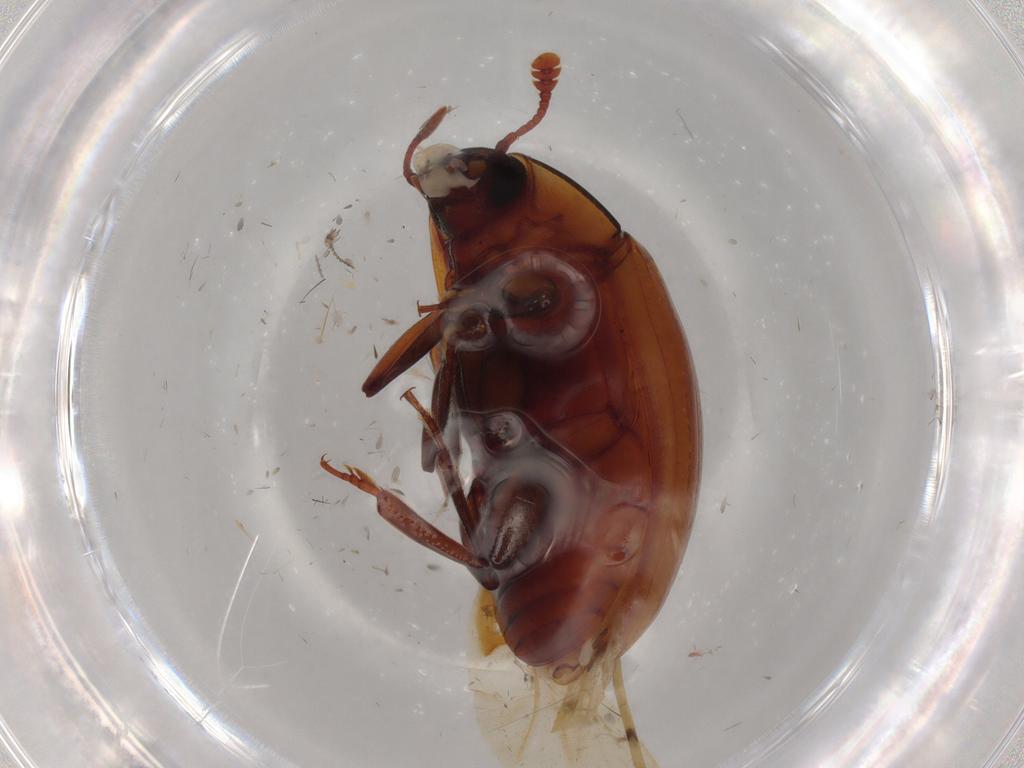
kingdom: Animalia
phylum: Arthropoda
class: Insecta
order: Coleoptera
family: Zopheridae
